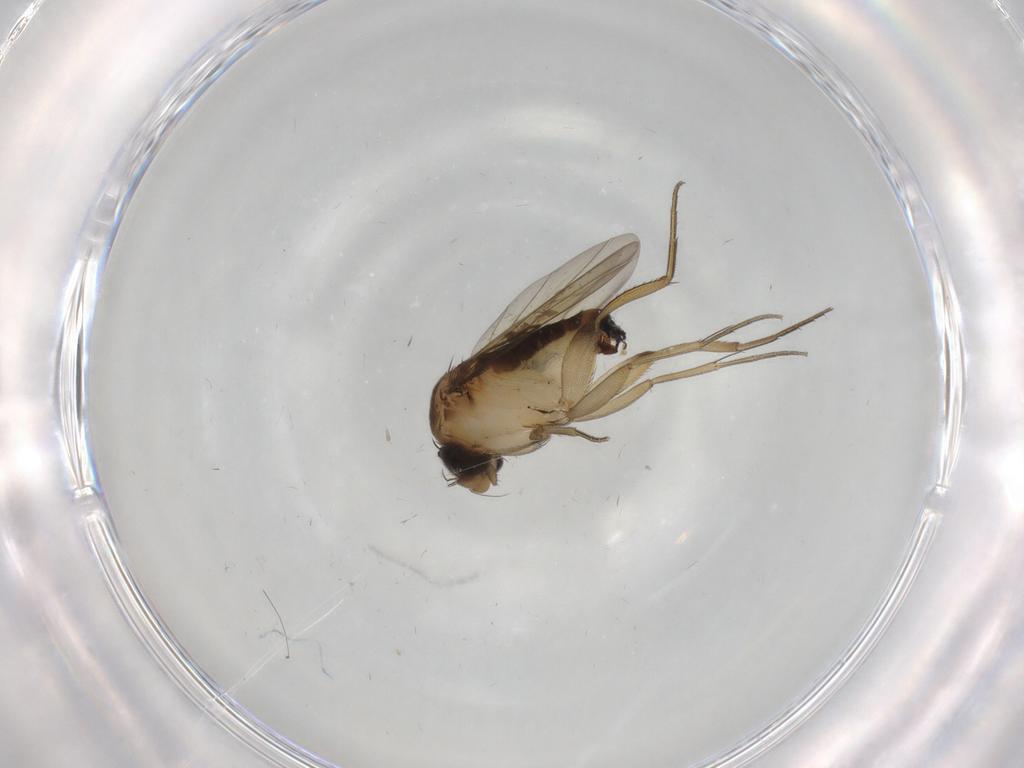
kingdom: Animalia
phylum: Arthropoda
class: Insecta
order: Diptera
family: Phoridae
